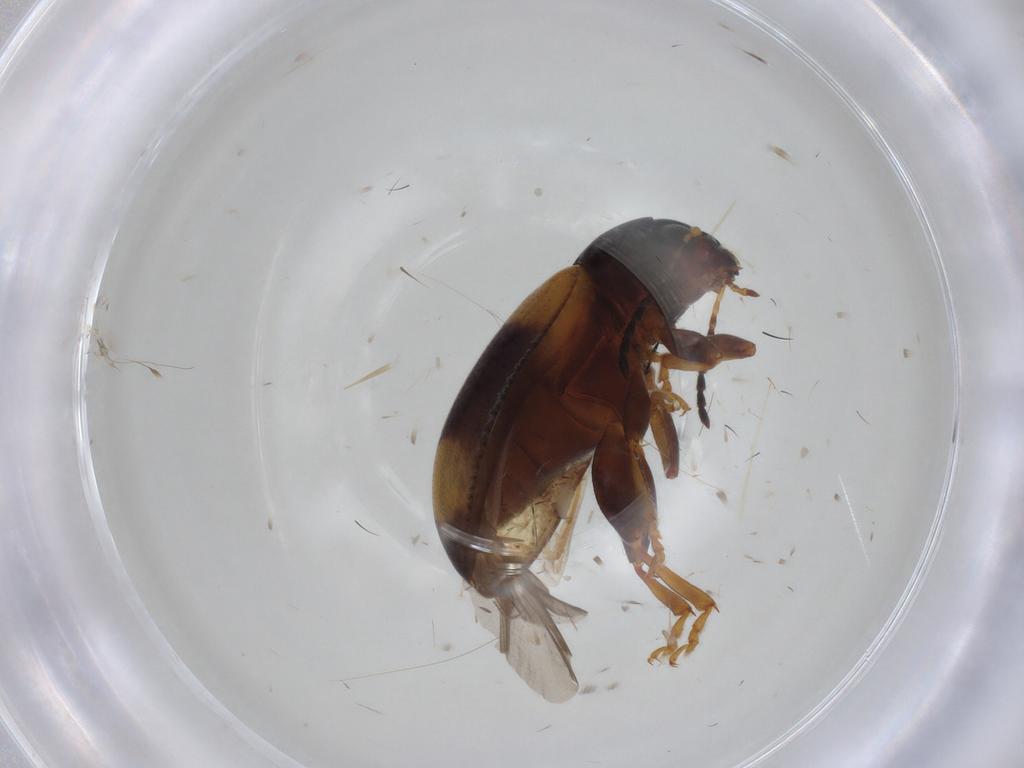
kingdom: Animalia
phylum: Arthropoda
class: Insecta
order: Coleoptera
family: Chrysomelidae
